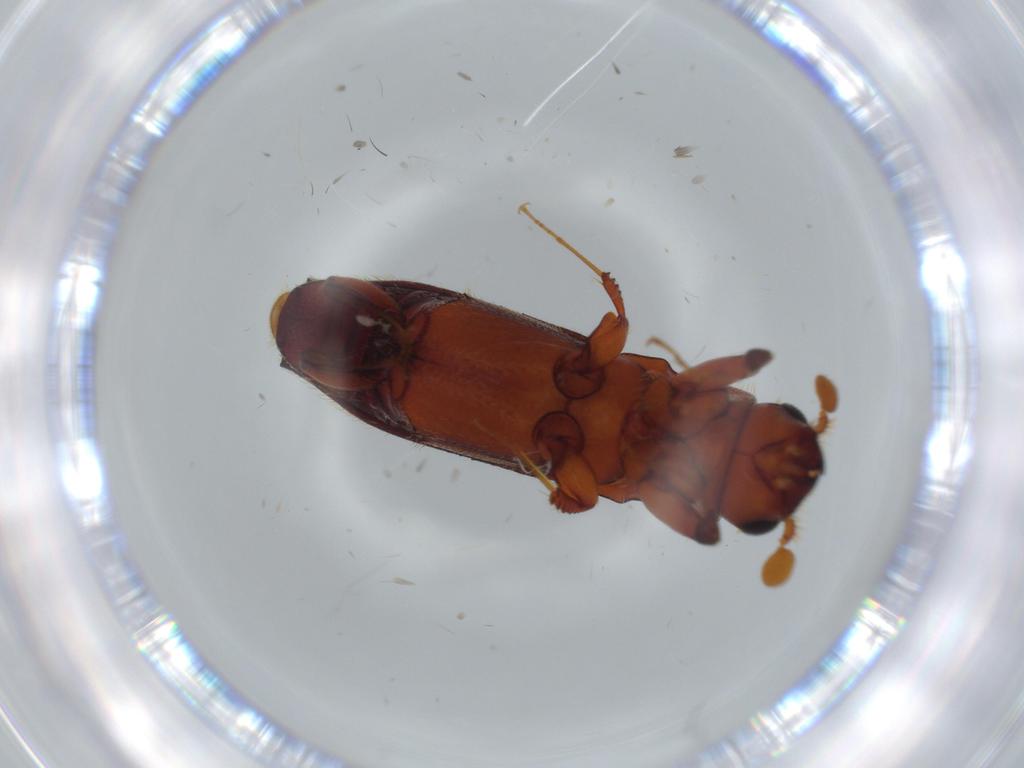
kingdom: Animalia
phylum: Arthropoda
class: Insecta
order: Coleoptera
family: Curculionidae
